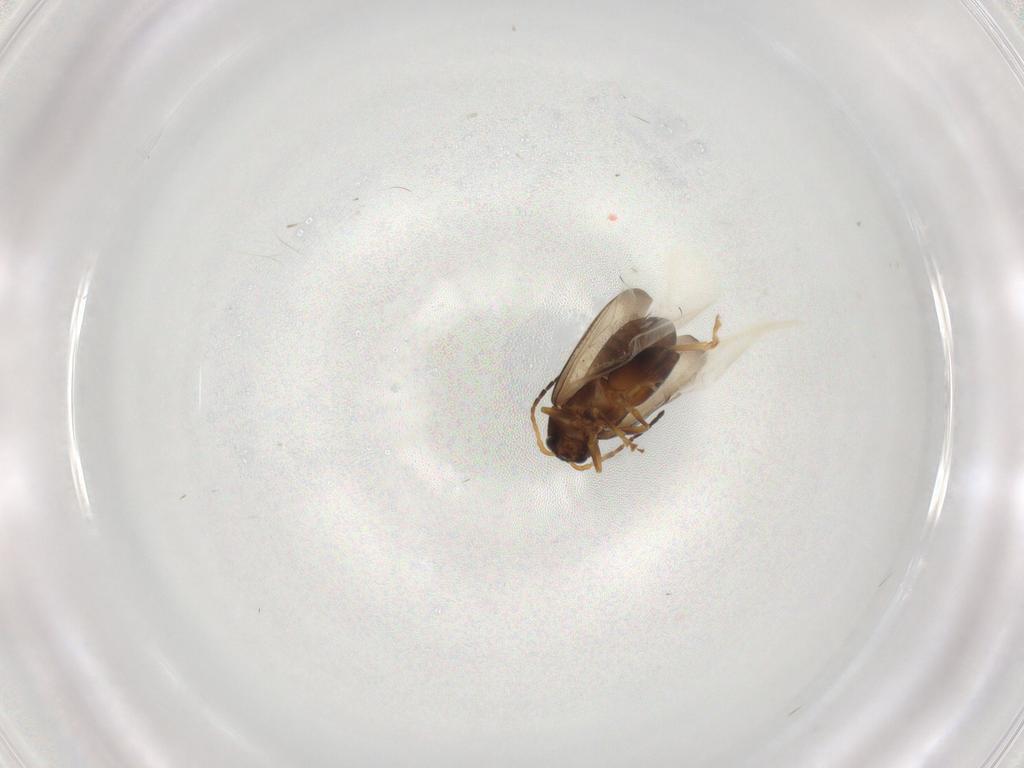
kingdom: Animalia
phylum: Arthropoda
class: Insecta
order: Coleoptera
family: Chrysomelidae
